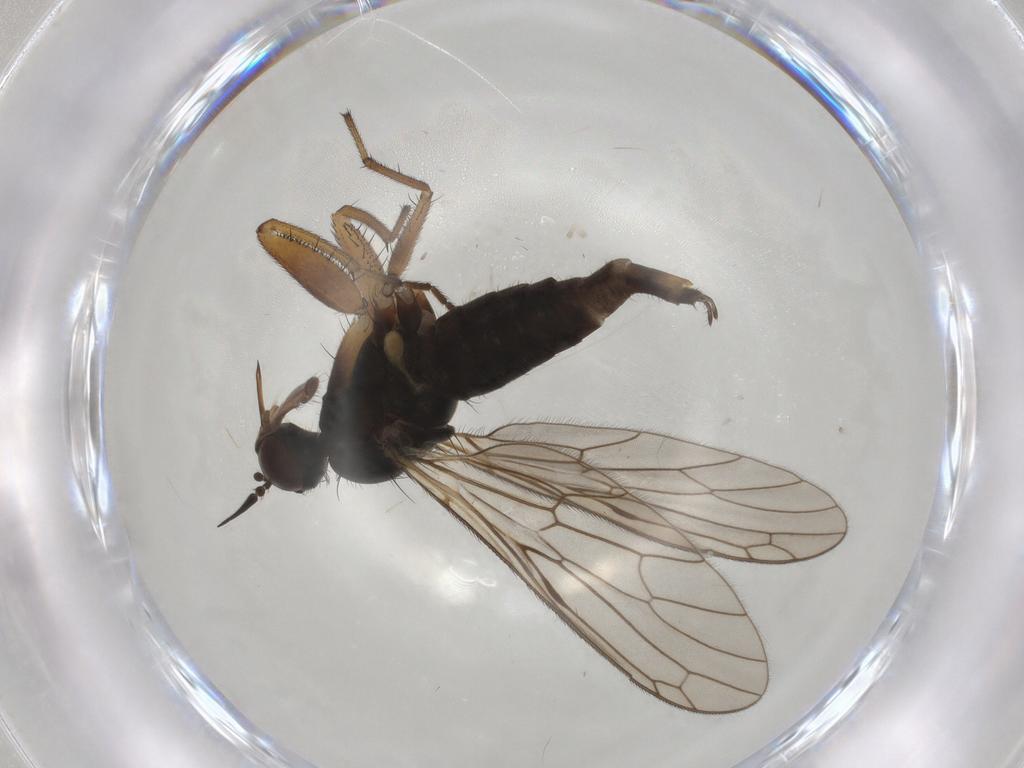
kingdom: Animalia
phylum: Arthropoda
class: Insecta
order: Diptera
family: Empididae
